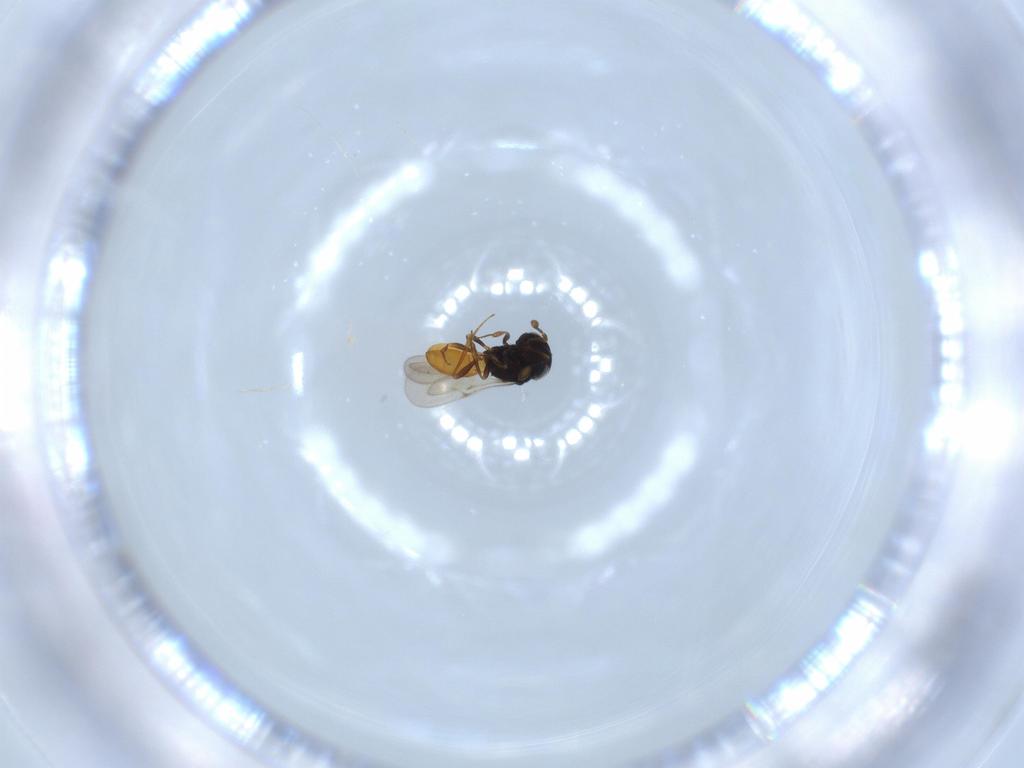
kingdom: Animalia
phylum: Arthropoda
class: Insecta
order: Hymenoptera
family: Scelionidae
